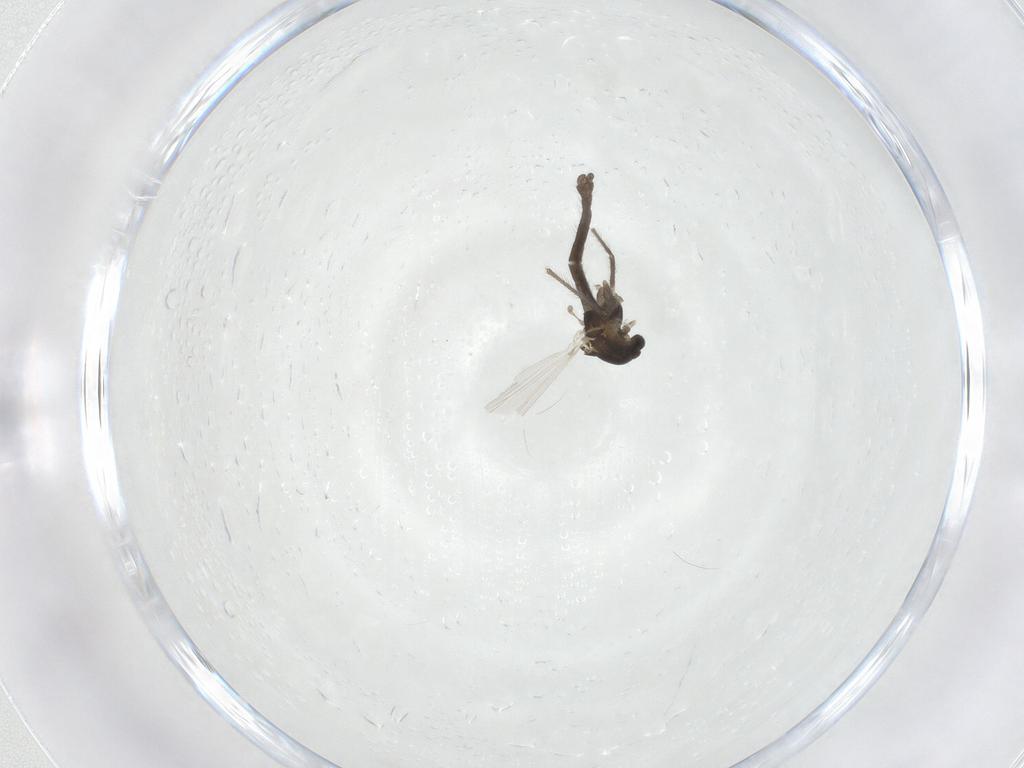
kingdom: Animalia
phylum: Arthropoda
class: Insecta
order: Diptera
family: Chironomidae
